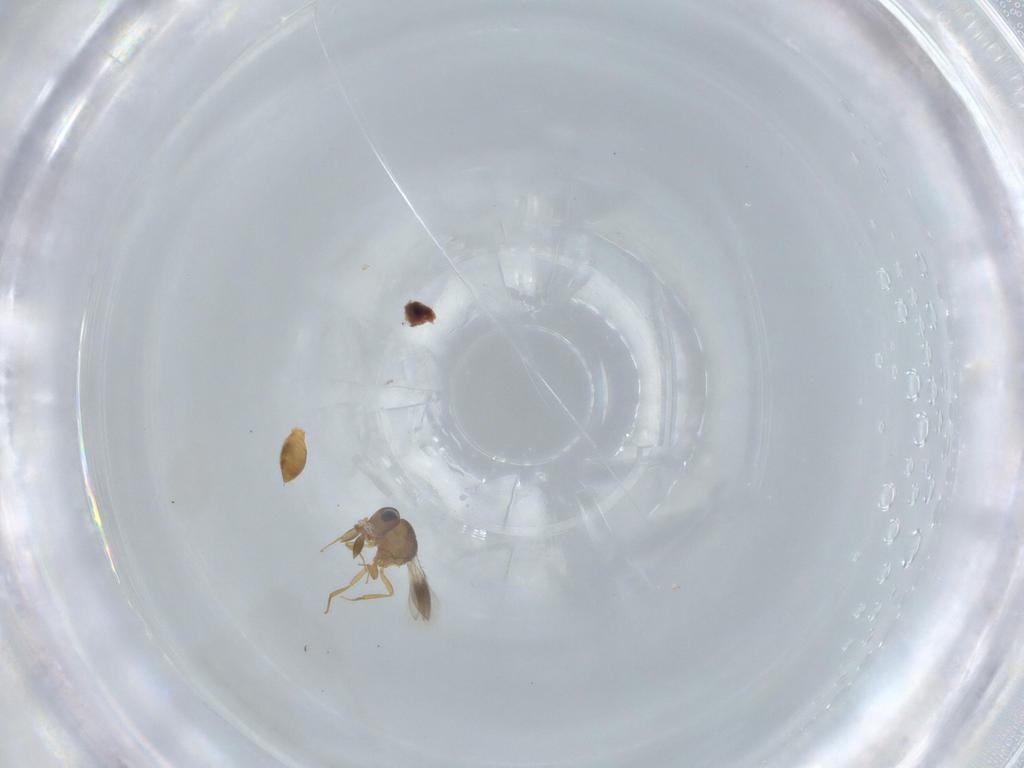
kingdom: Animalia
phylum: Arthropoda
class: Insecta
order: Hymenoptera
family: Scelionidae
